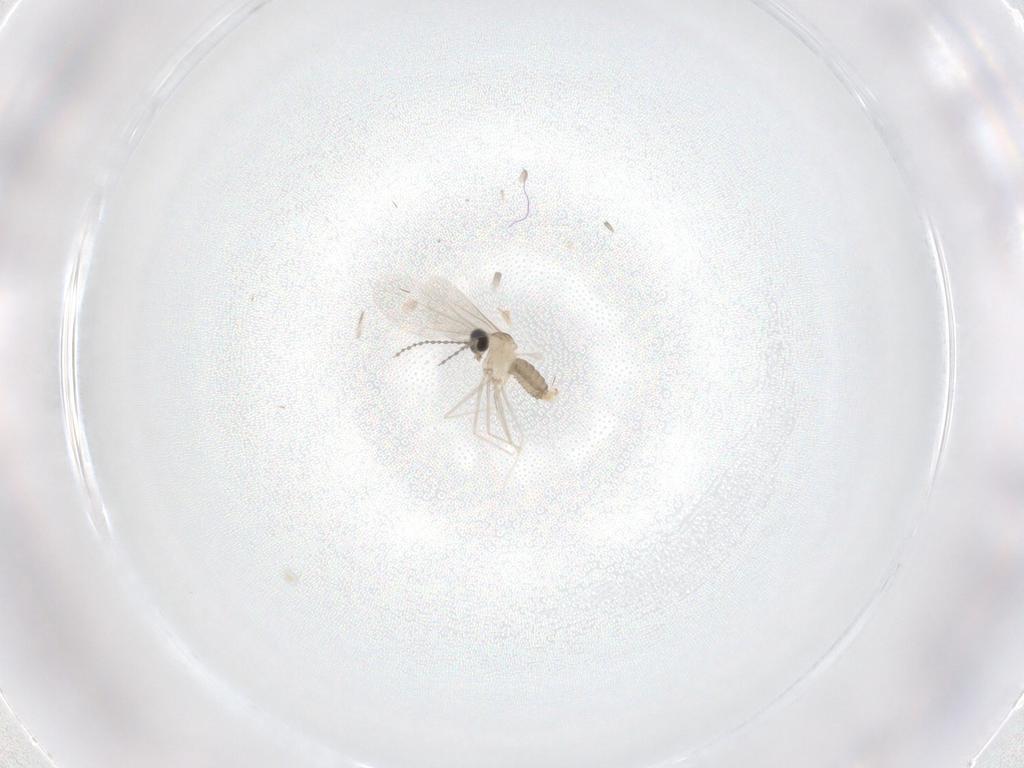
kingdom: Animalia
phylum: Arthropoda
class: Insecta
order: Diptera
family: Cecidomyiidae
